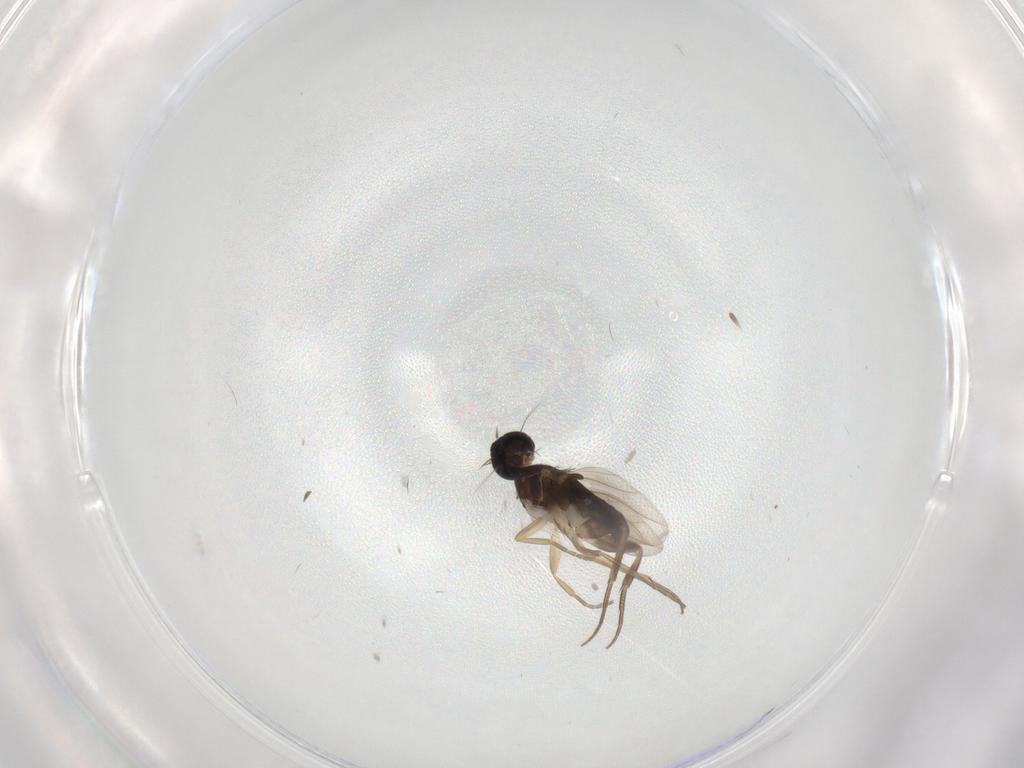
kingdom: Animalia
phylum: Arthropoda
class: Insecta
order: Diptera
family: Phoridae
